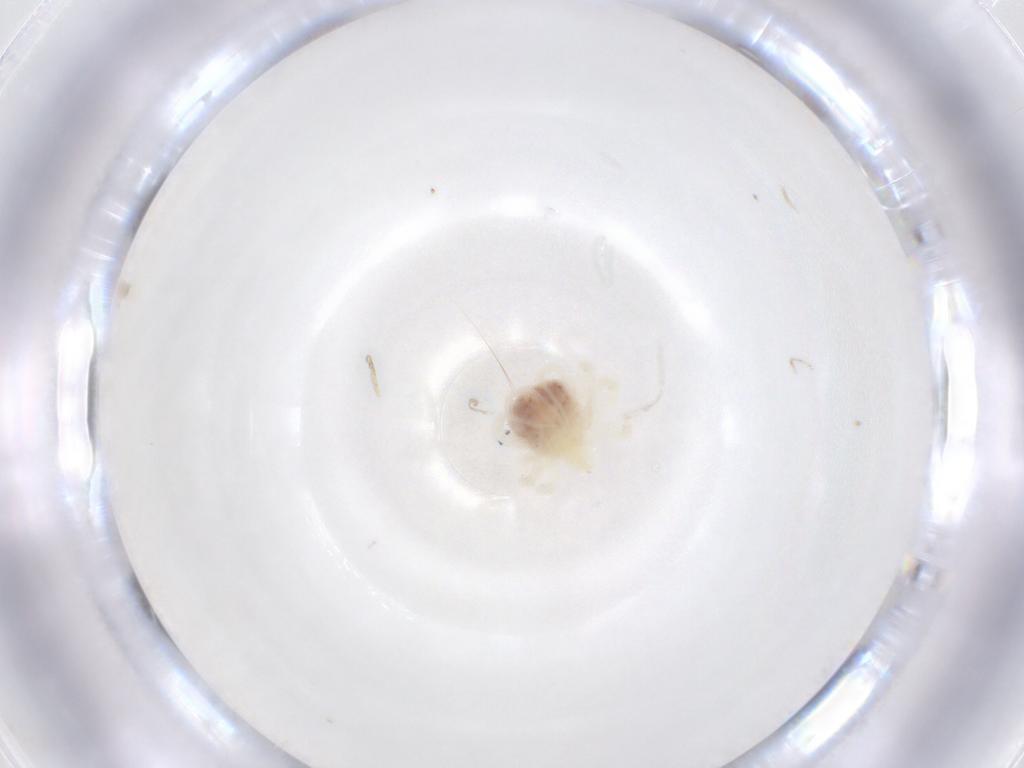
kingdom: Animalia
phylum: Arthropoda
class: Arachnida
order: Trombidiformes
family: Anystidae
